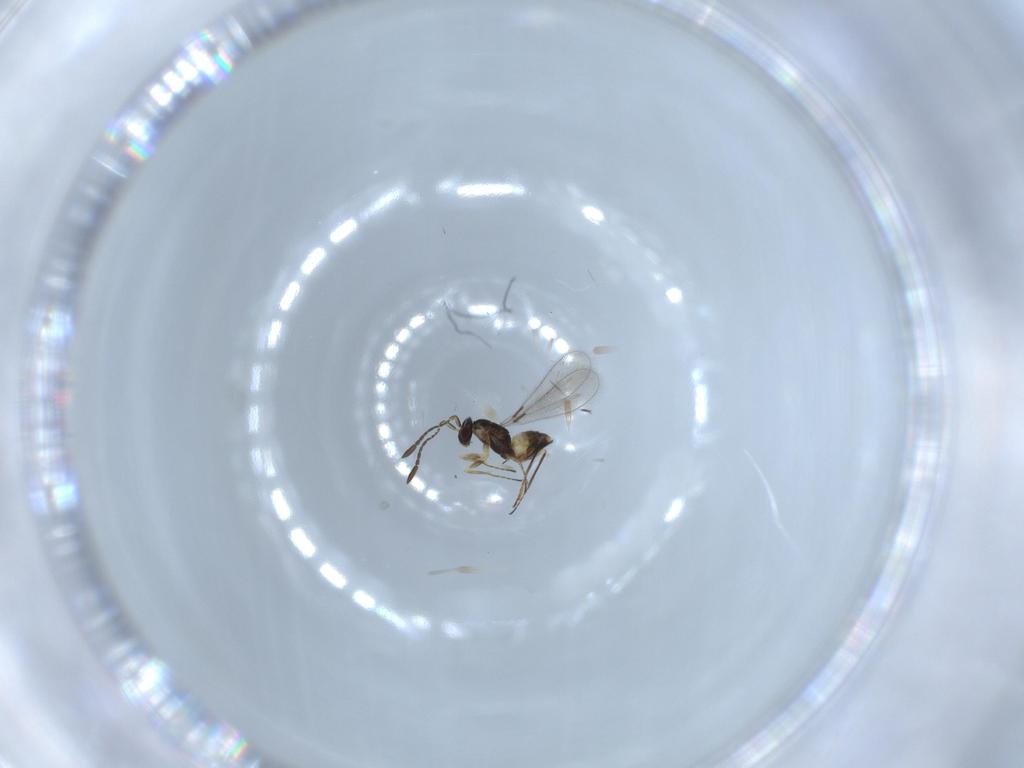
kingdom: Animalia
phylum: Arthropoda
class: Insecta
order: Hymenoptera
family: Mymaridae
